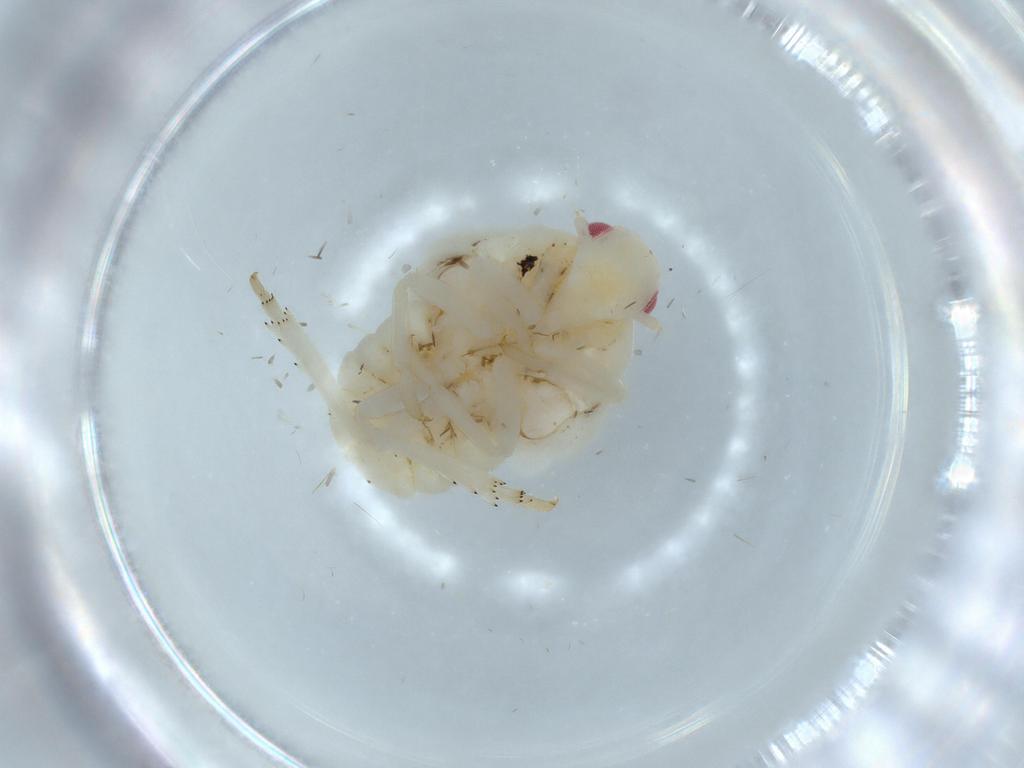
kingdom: Animalia
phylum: Arthropoda
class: Insecta
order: Hemiptera
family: Flatidae
